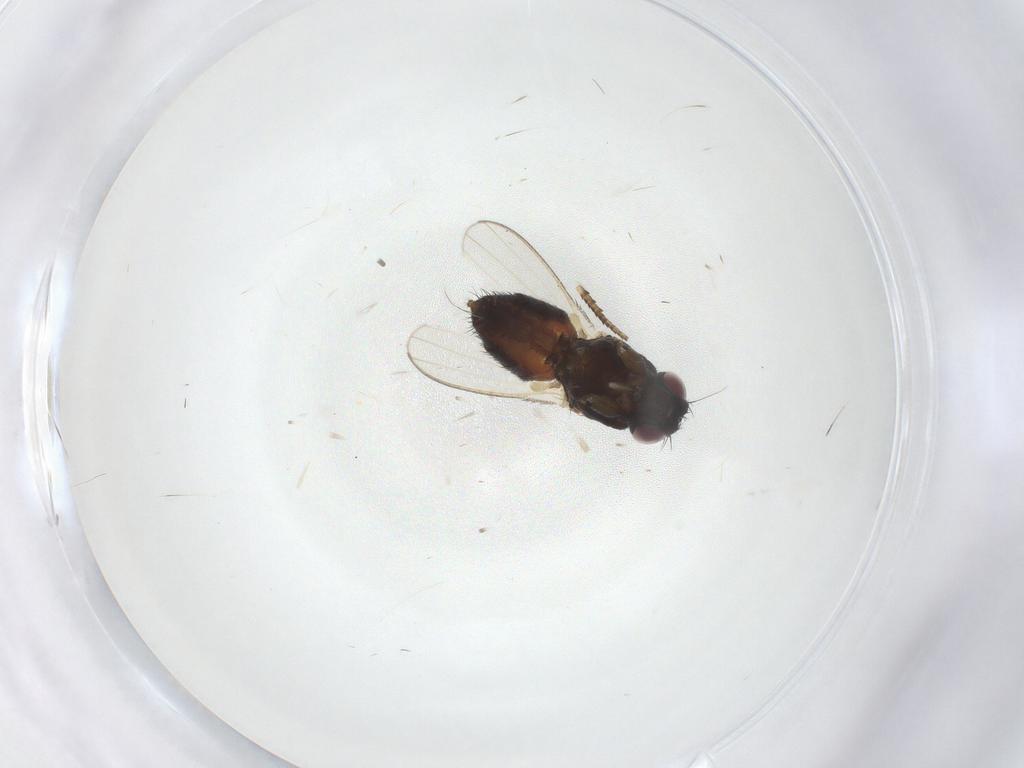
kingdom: Animalia
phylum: Arthropoda
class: Insecta
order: Diptera
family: Milichiidae
